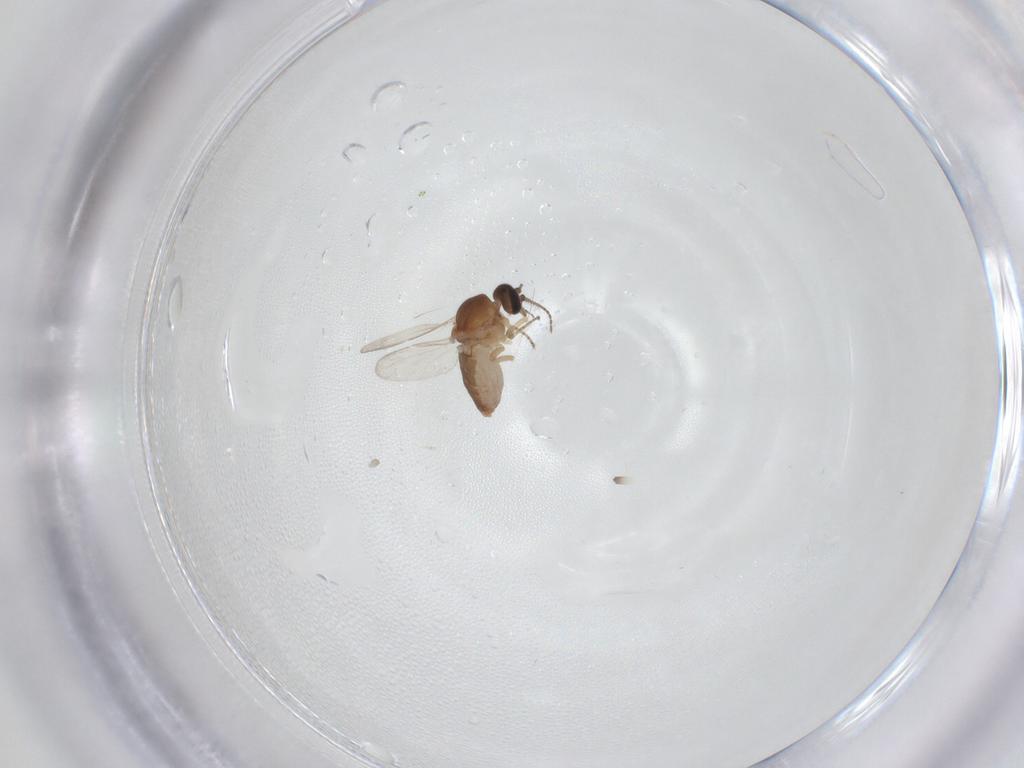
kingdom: Animalia
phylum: Arthropoda
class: Insecta
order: Diptera
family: Ceratopogonidae
